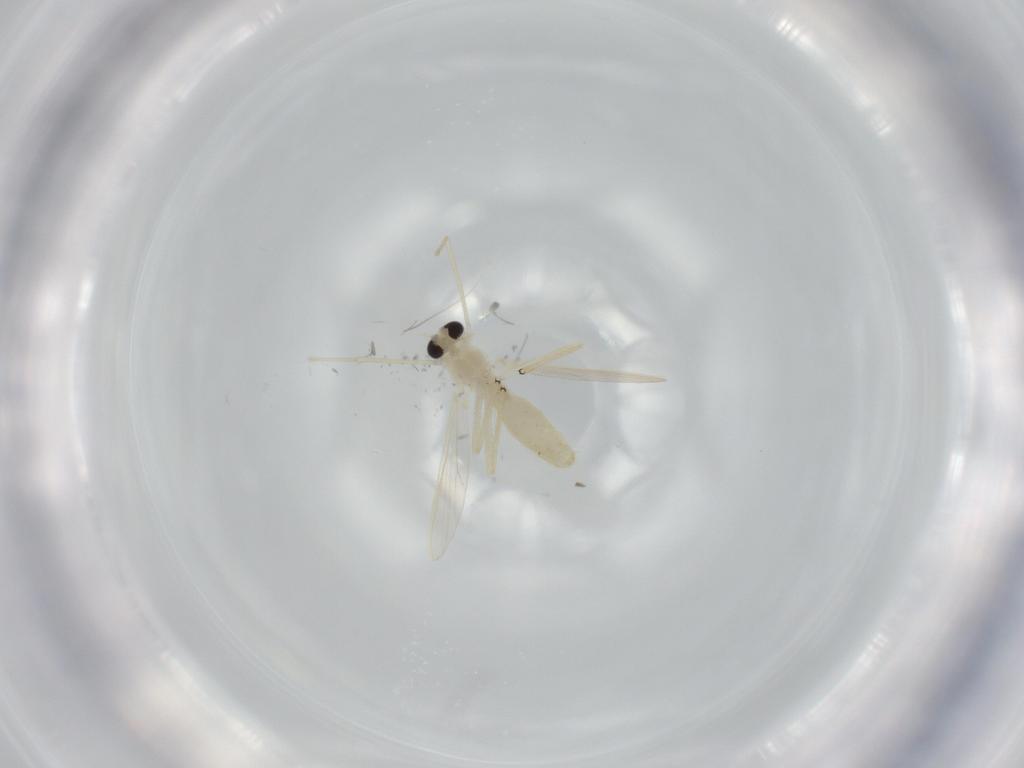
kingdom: Animalia
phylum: Arthropoda
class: Insecta
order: Diptera
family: Chironomidae
